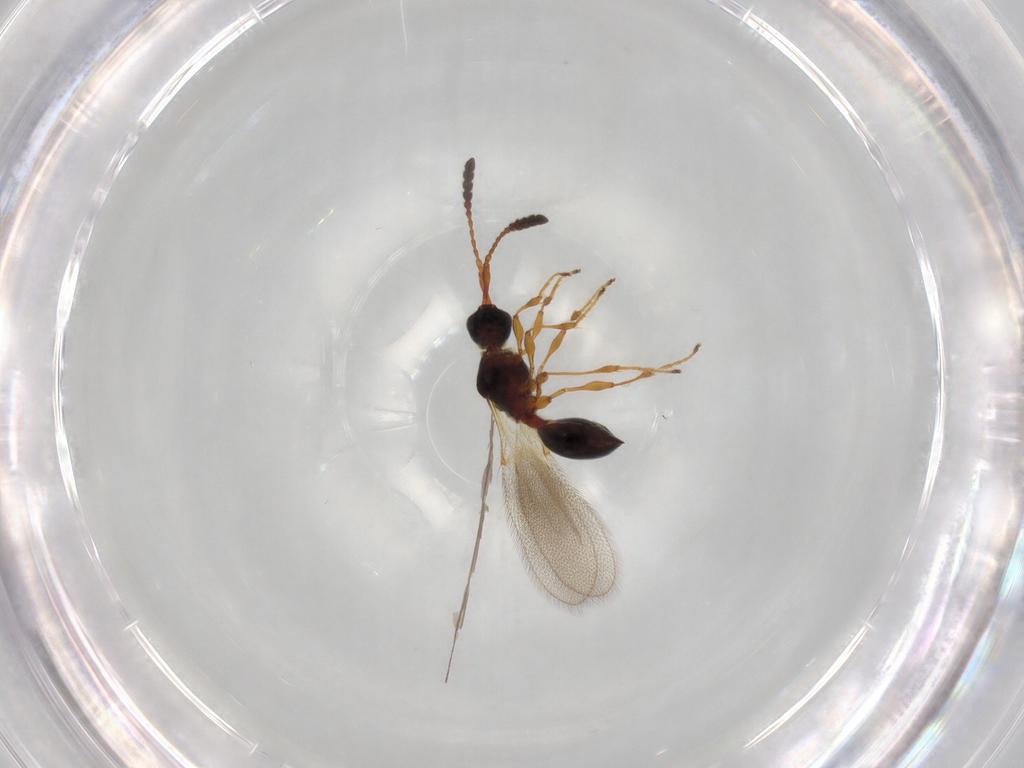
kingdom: Animalia
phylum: Arthropoda
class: Insecta
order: Hymenoptera
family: Diapriidae
